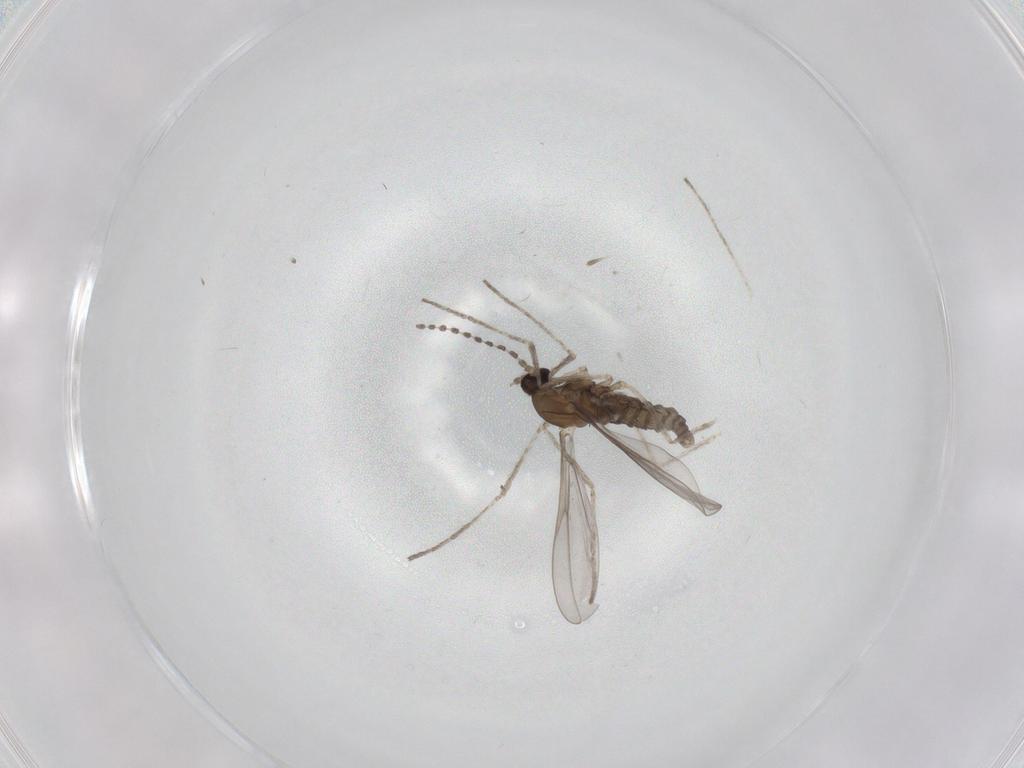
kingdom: Animalia
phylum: Arthropoda
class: Insecta
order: Diptera
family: Cecidomyiidae
